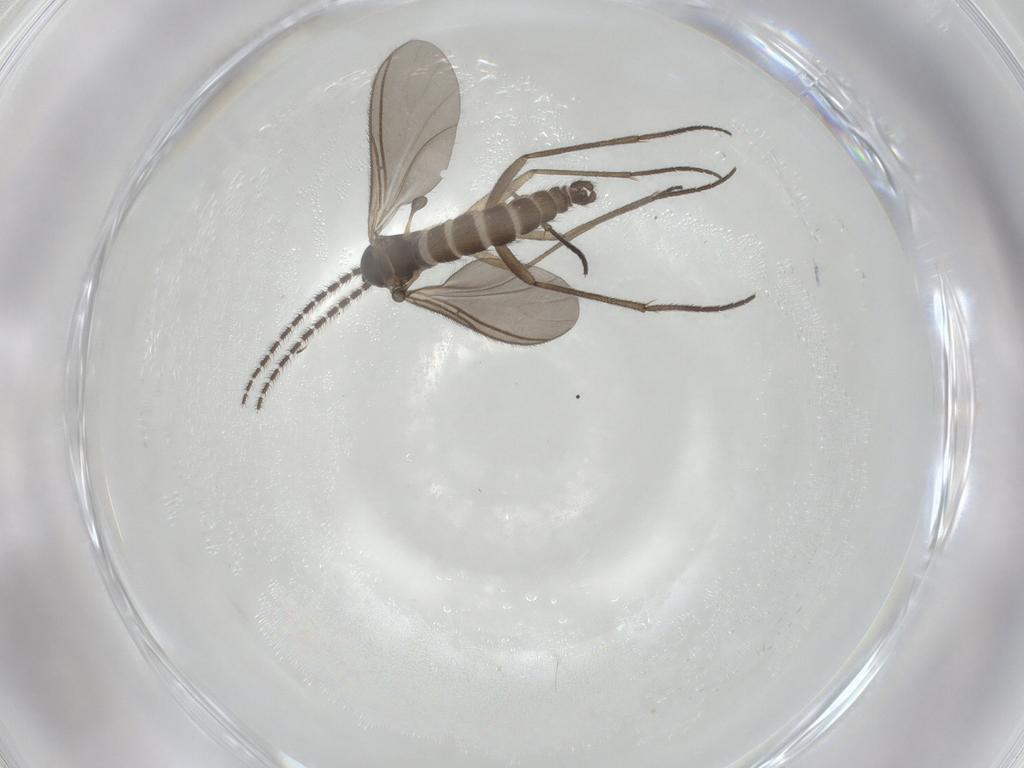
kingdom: Animalia
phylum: Arthropoda
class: Insecta
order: Diptera
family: Sciaridae
